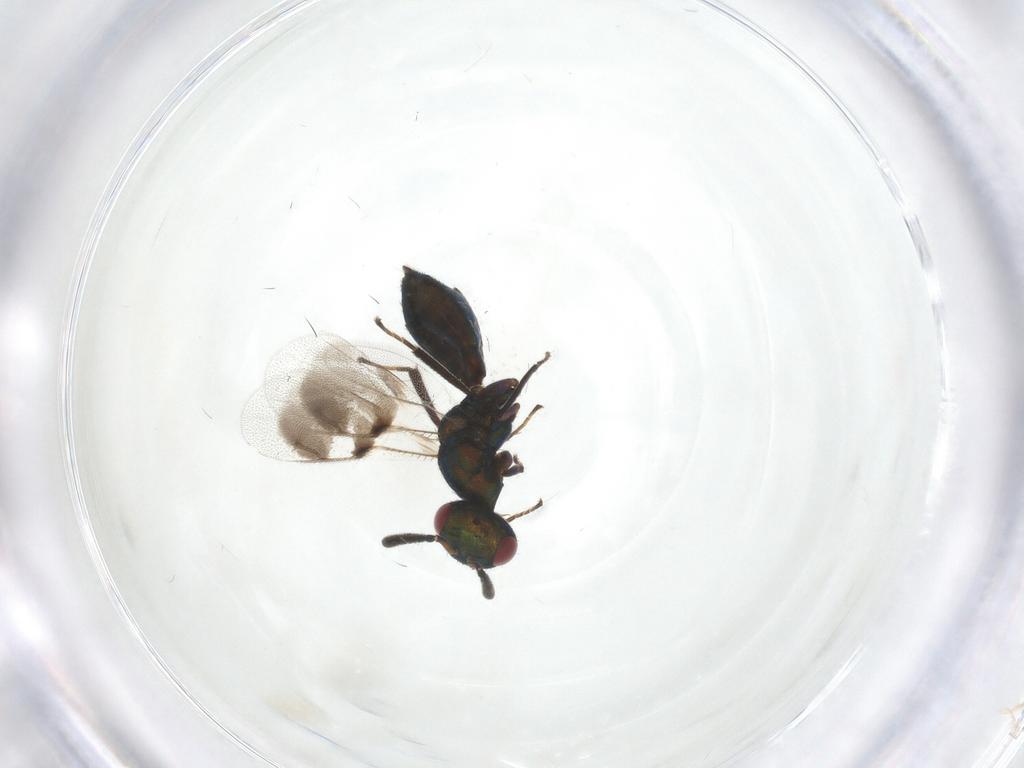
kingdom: Animalia
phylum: Arthropoda
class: Insecta
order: Hymenoptera
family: Pteromalidae
